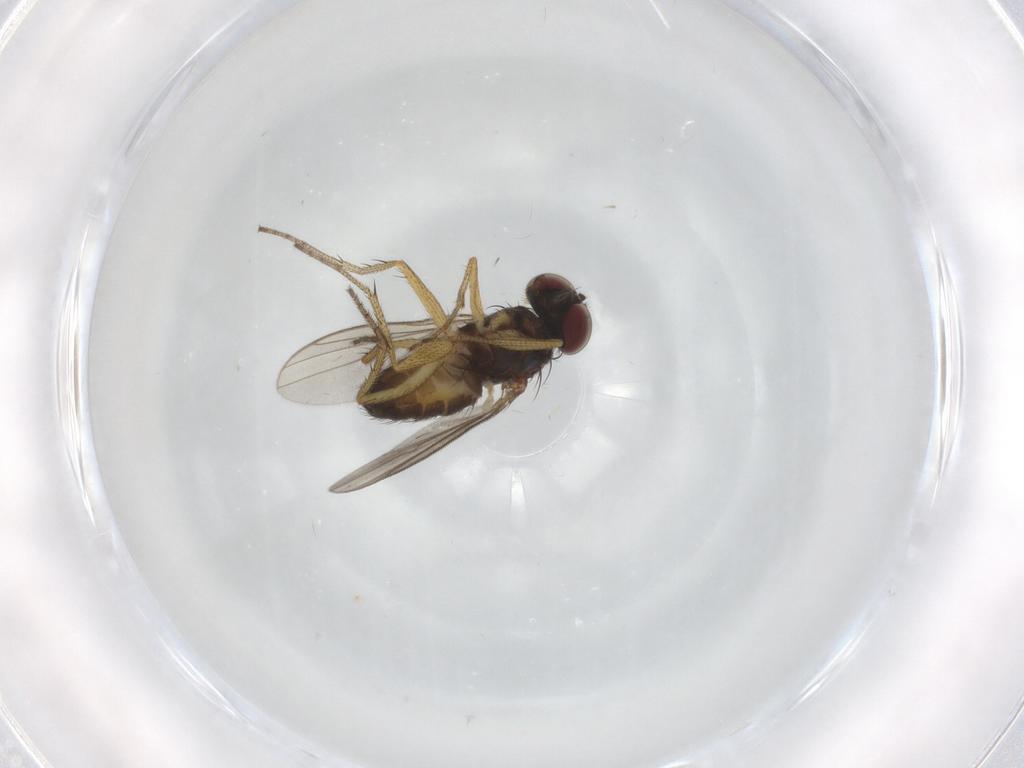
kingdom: Animalia
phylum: Arthropoda
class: Insecta
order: Diptera
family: Dolichopodidae
